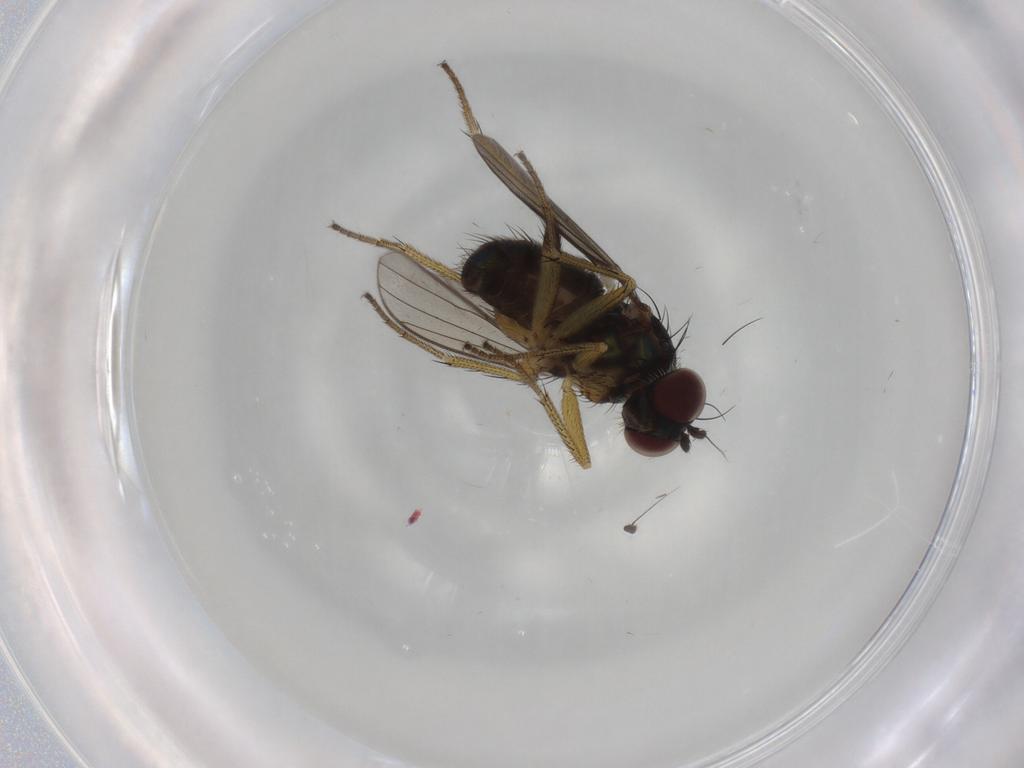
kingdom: Animalia
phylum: Arthropoda
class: Insecta
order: Diptera
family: Dolichopodidae
